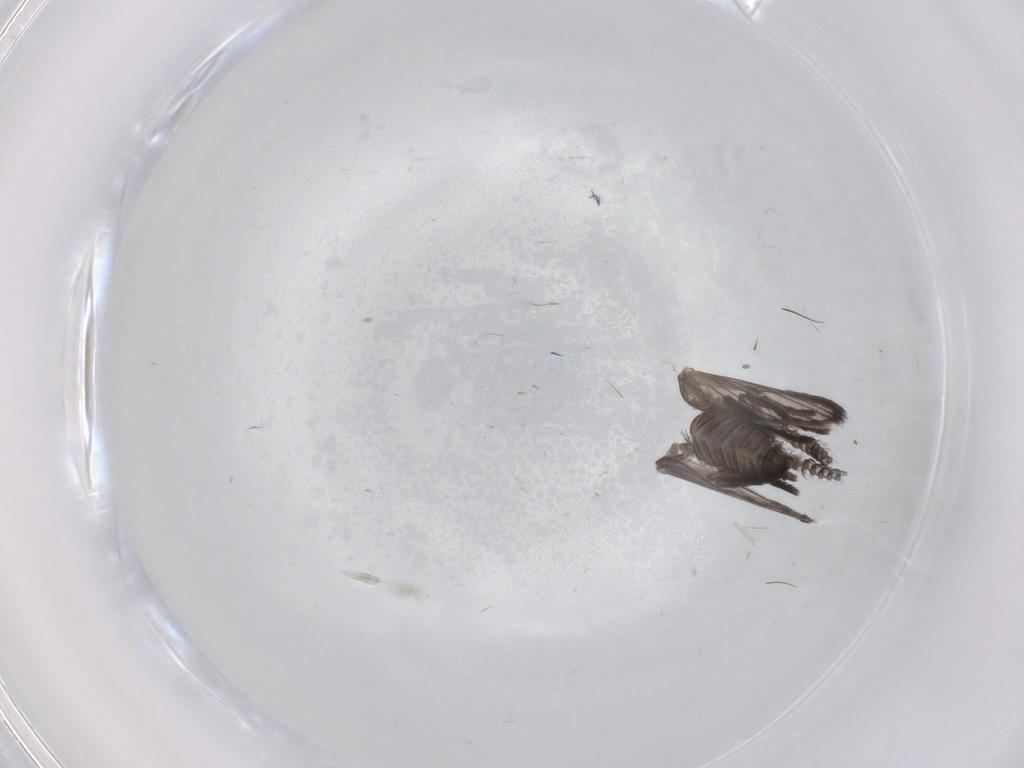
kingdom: Animalia
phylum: Arthropoda
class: Insecta
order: Diptera
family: Psychodidae
